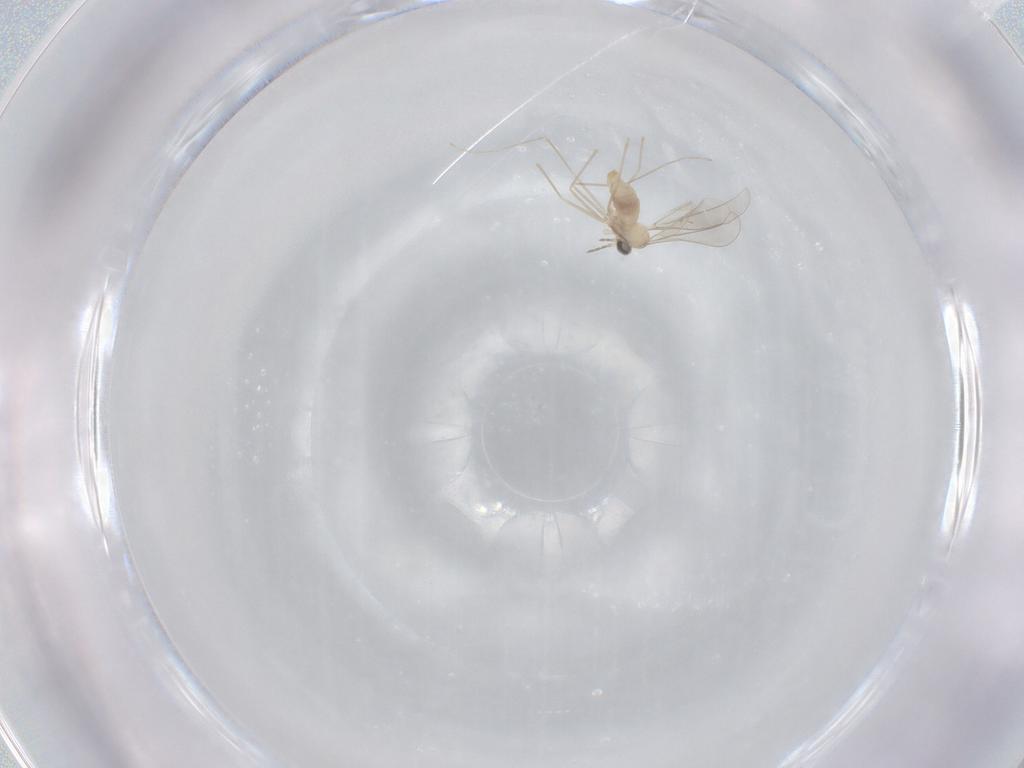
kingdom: Animalia
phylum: Arthropoda
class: Insecta
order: Diptera
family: Cecidomyiidae
